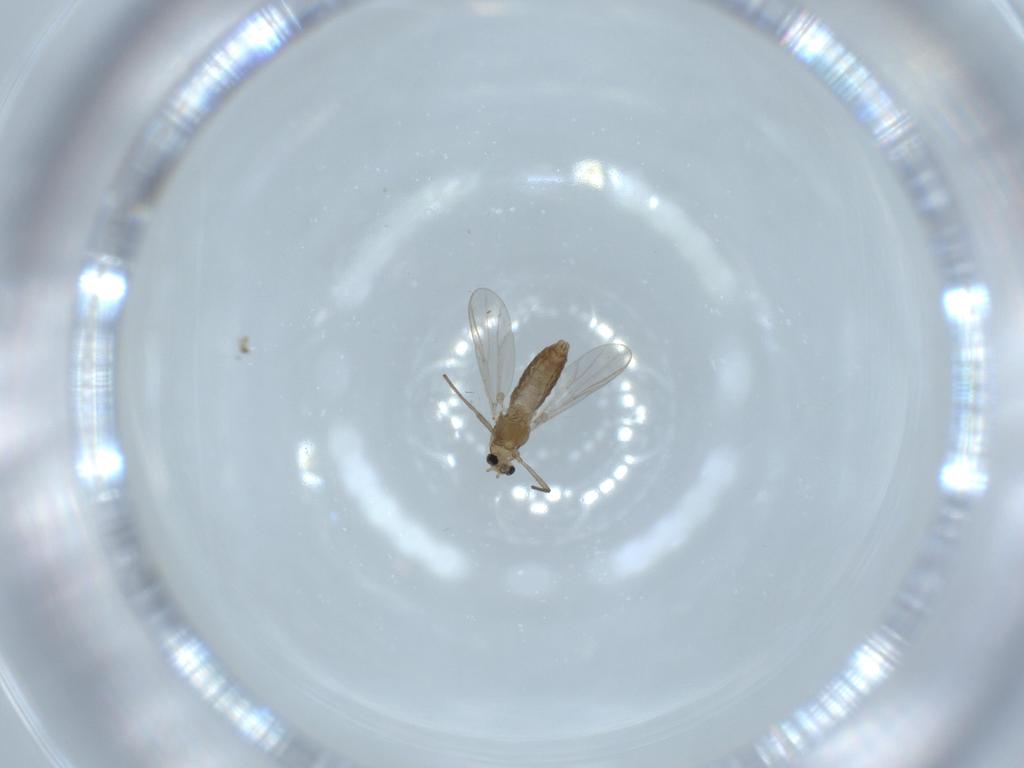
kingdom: Animalia
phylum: Arthropoda
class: Insecta
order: Diptera
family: Chironomidae
